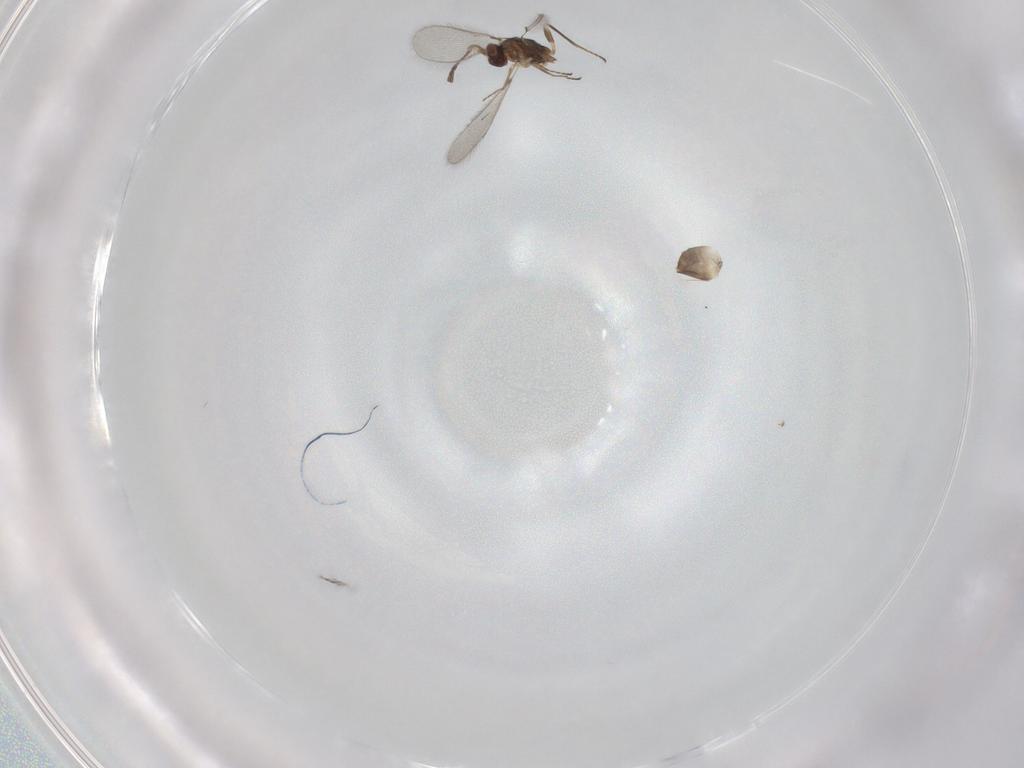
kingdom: Animalia
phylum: Arthropoda
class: Insecta
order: Hymenoptera
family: Mymaridae
